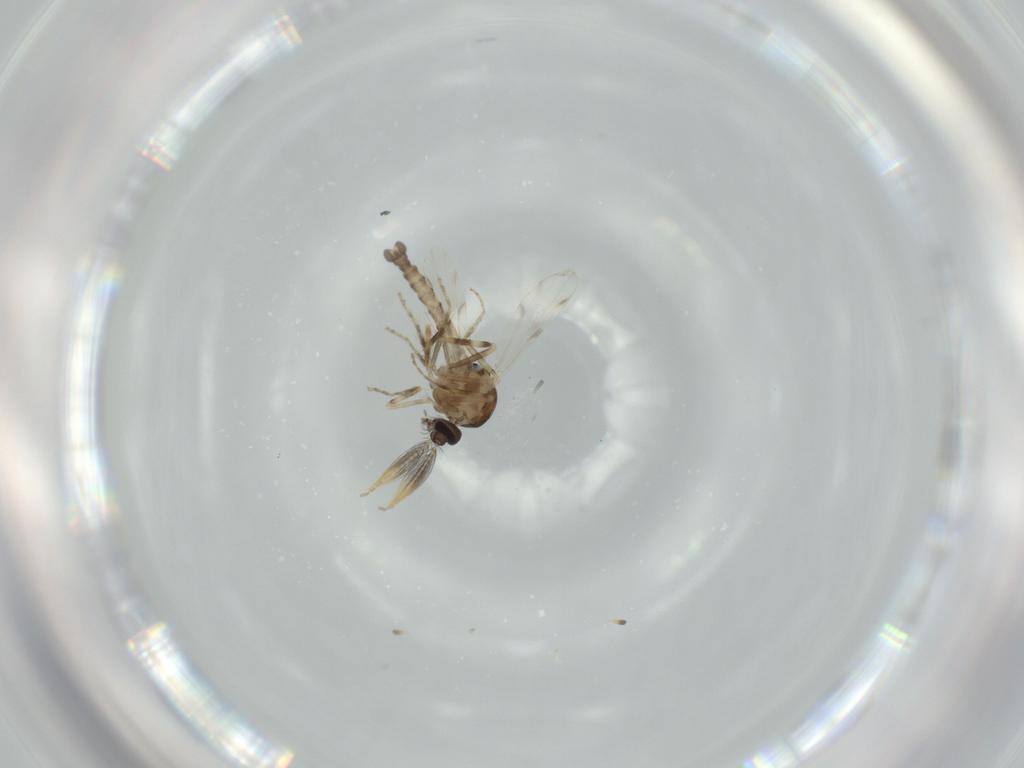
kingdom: Animalia
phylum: Arthropoda
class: Insecta
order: Diptera
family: Ceratopogonidae
